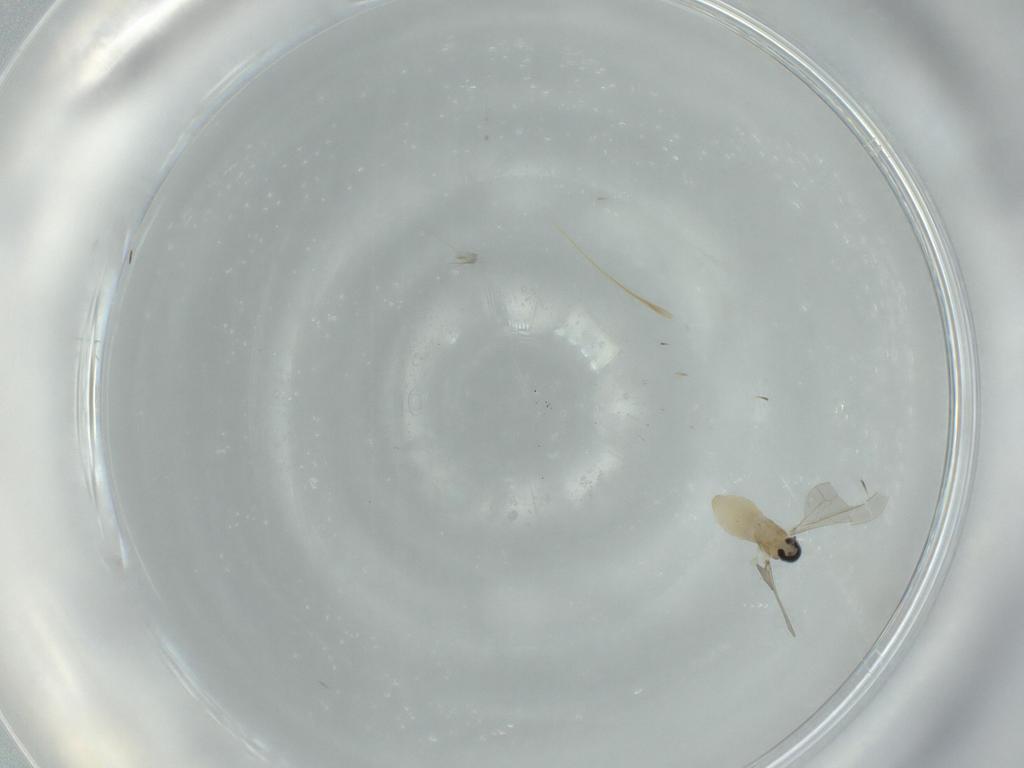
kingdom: Animalia
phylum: Arthropoda
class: Insecta
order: Diptera
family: Cecidomyiidae
